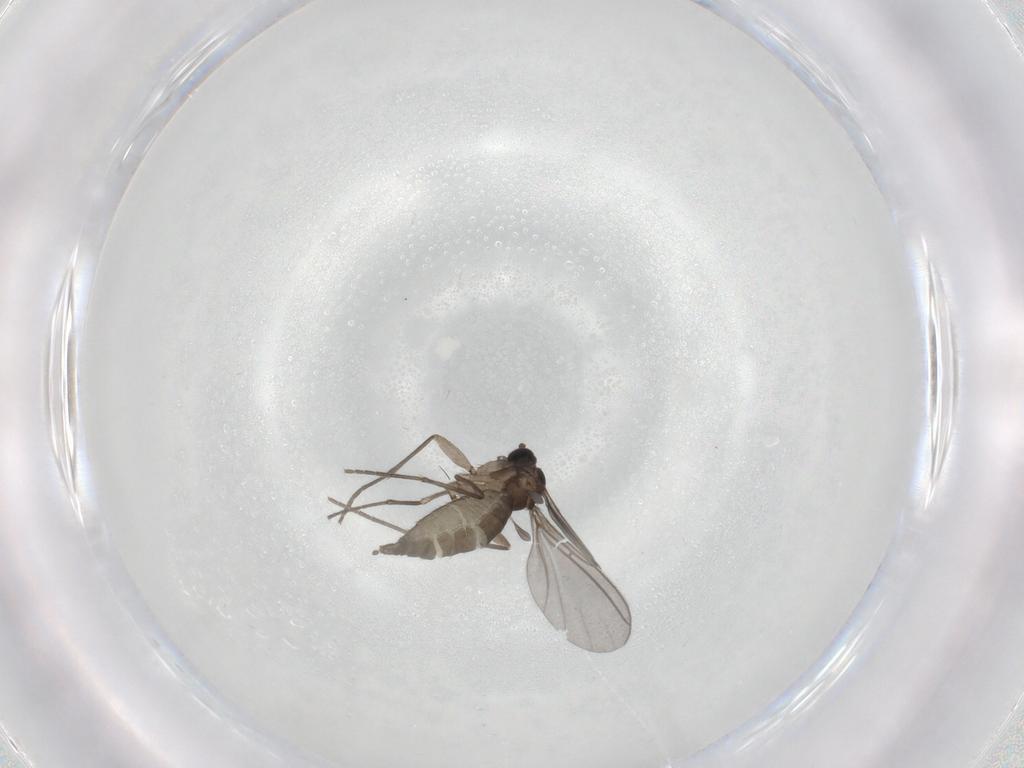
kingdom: Animalia
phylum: Arthropoda
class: Insecta
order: Diptera
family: Sciaridae
